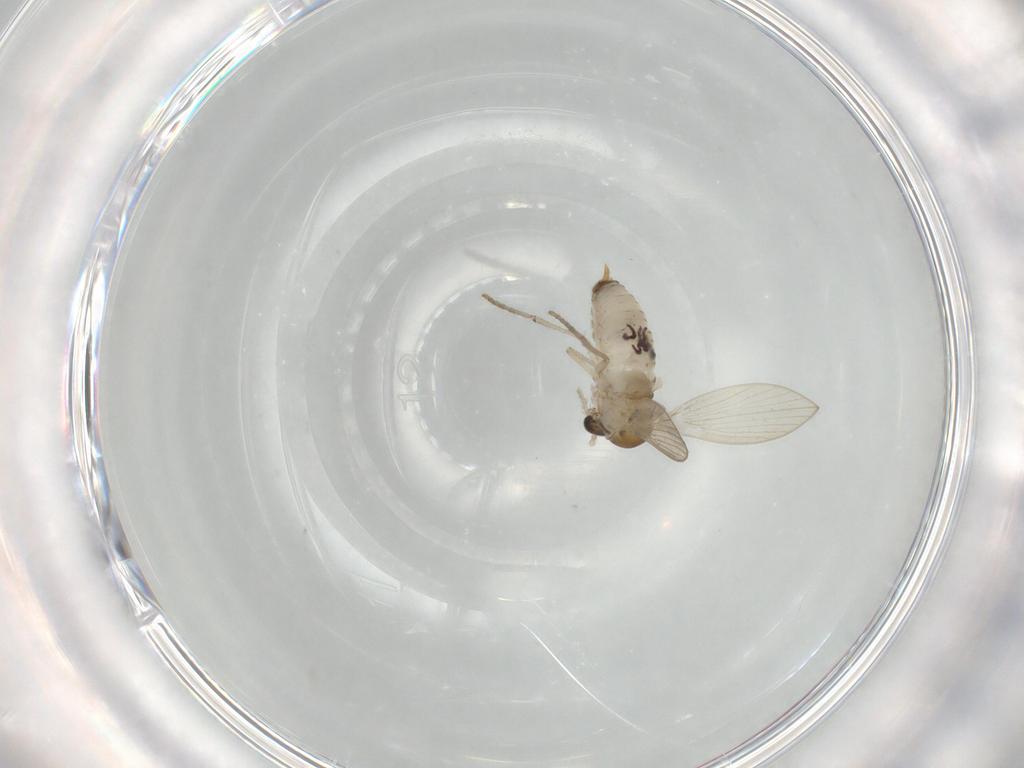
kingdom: Animalia
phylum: Arthropoda
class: Insecta
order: Diptera
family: Psychodidae
